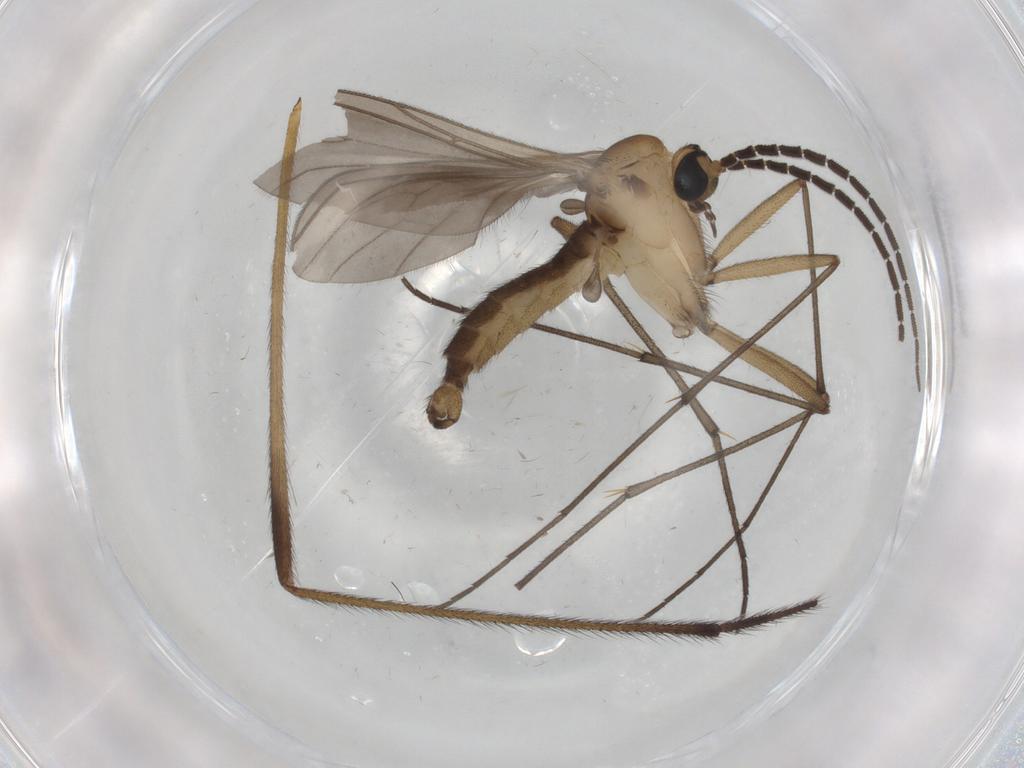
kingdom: Animalia
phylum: Arthropoda
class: Insecta
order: Diptera
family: Limoniidae
